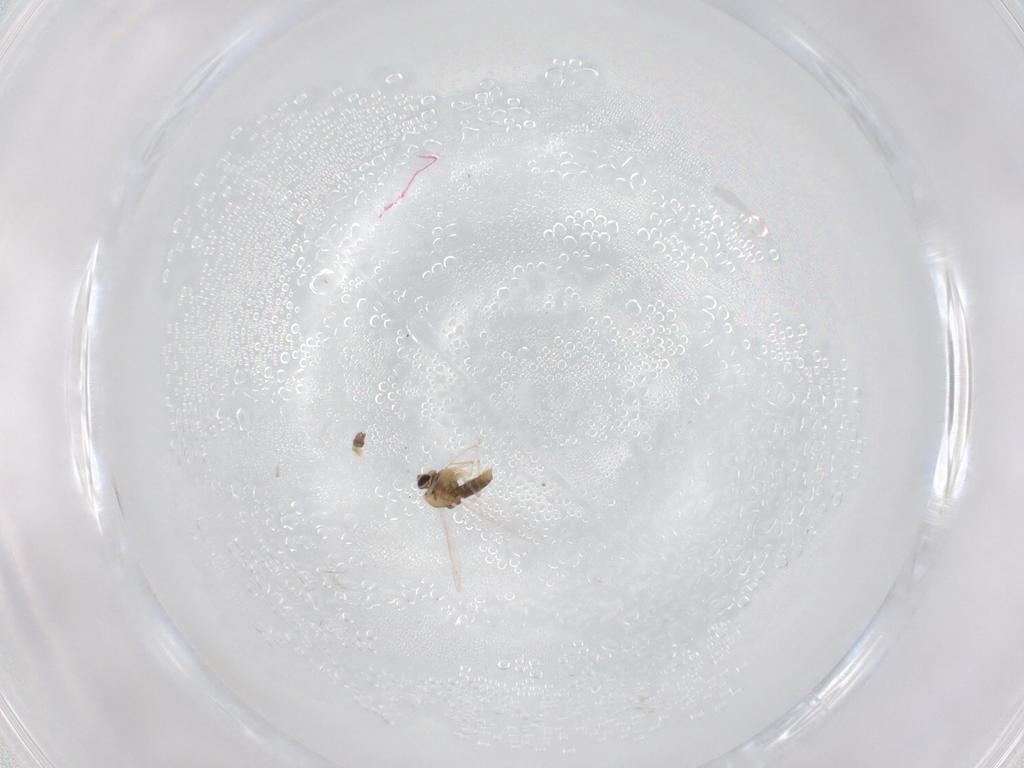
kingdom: Animalia
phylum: Arthropoda
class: Insecta
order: Diptera
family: Chironomidae
